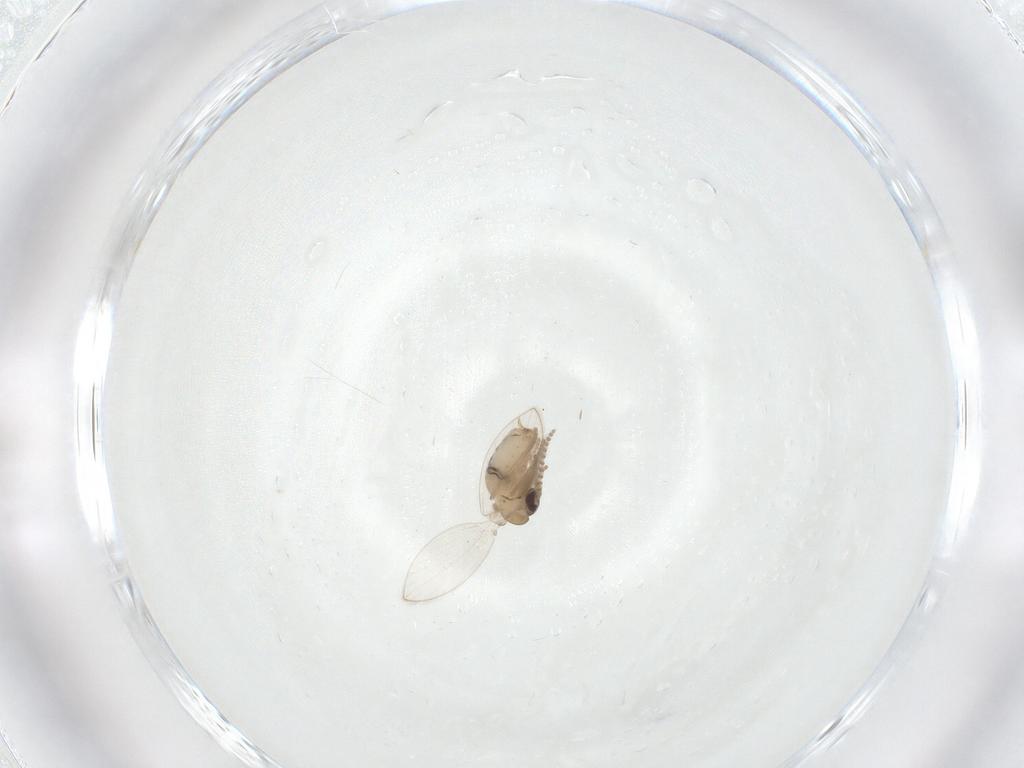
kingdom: Animalia
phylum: Arthropoda
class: Insecta
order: Diptera
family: Psychodidae
